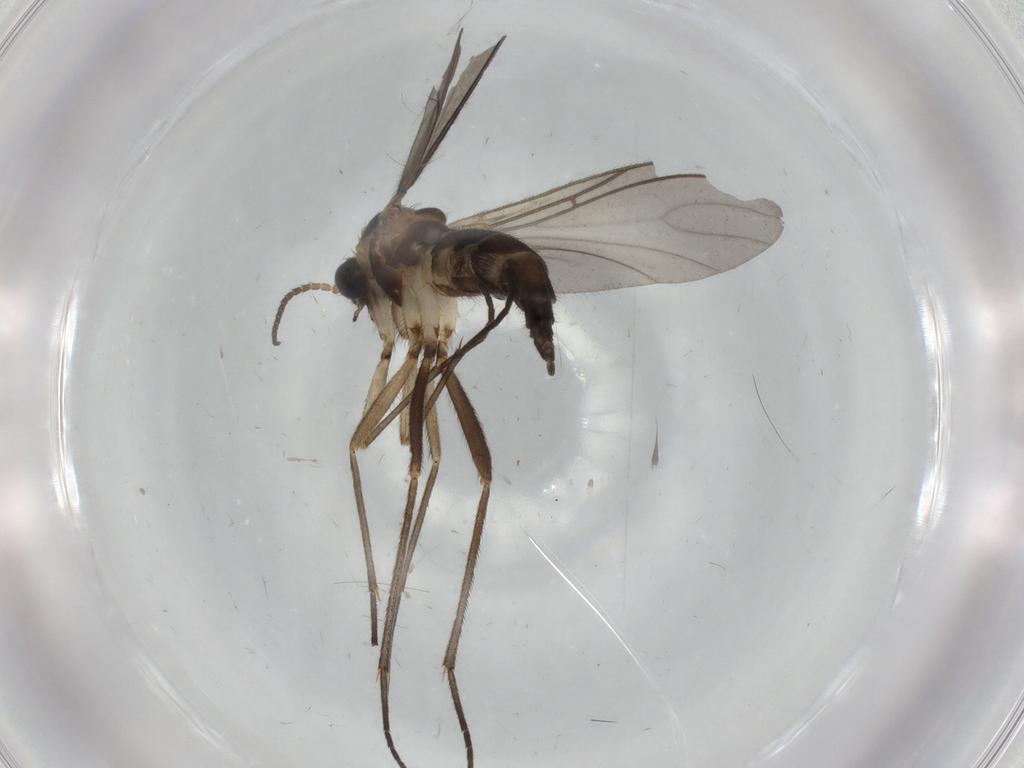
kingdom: Animalia
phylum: Arthropoda
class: Insecta
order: Diptera
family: Sciaridae
